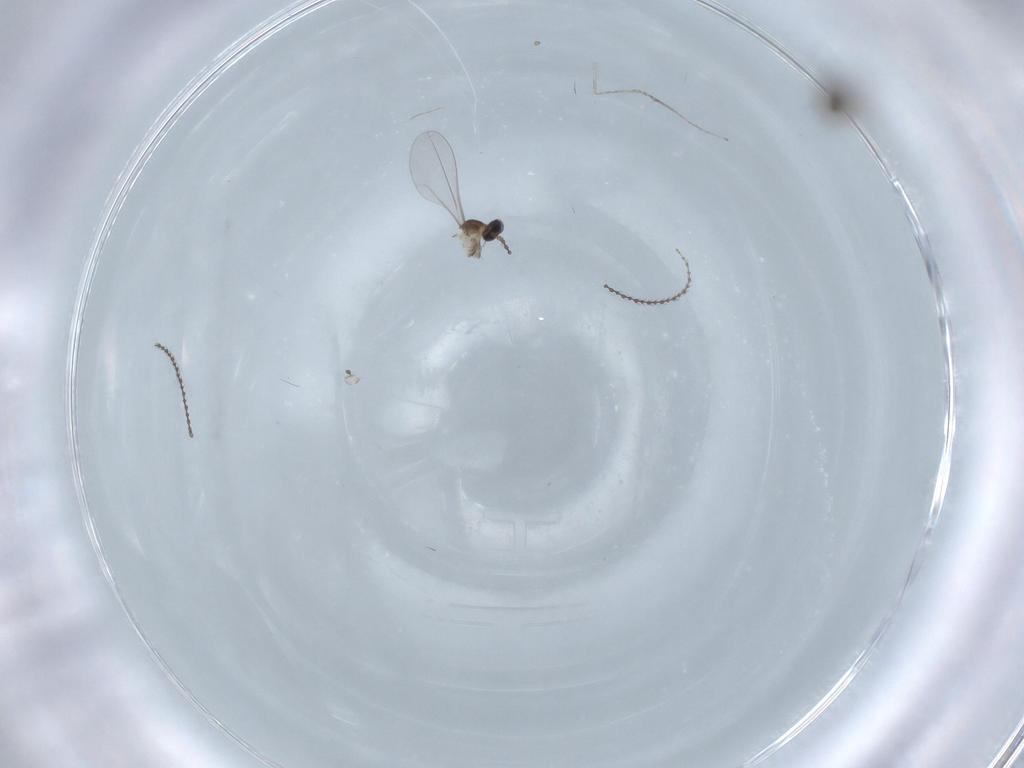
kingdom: Animalia
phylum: Arthropoda
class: Insecta
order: Diptera
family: Cecidomyiidae
